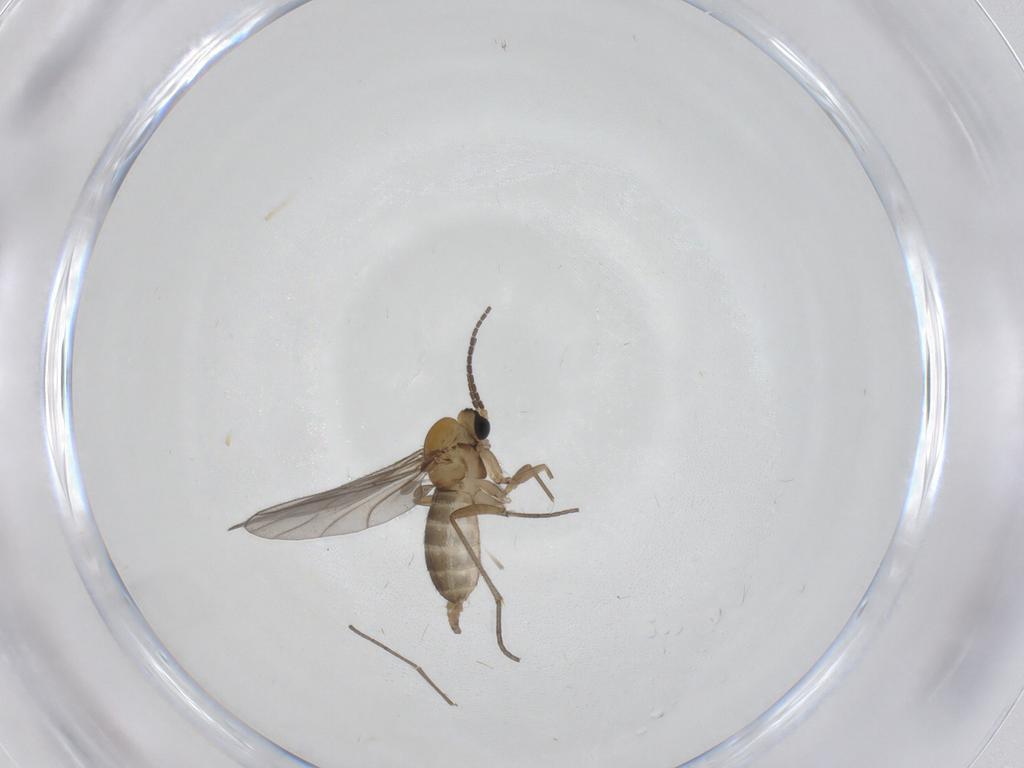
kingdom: Animalia
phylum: Arthropoda
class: Insecta
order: Diptera
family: Sciaridae
